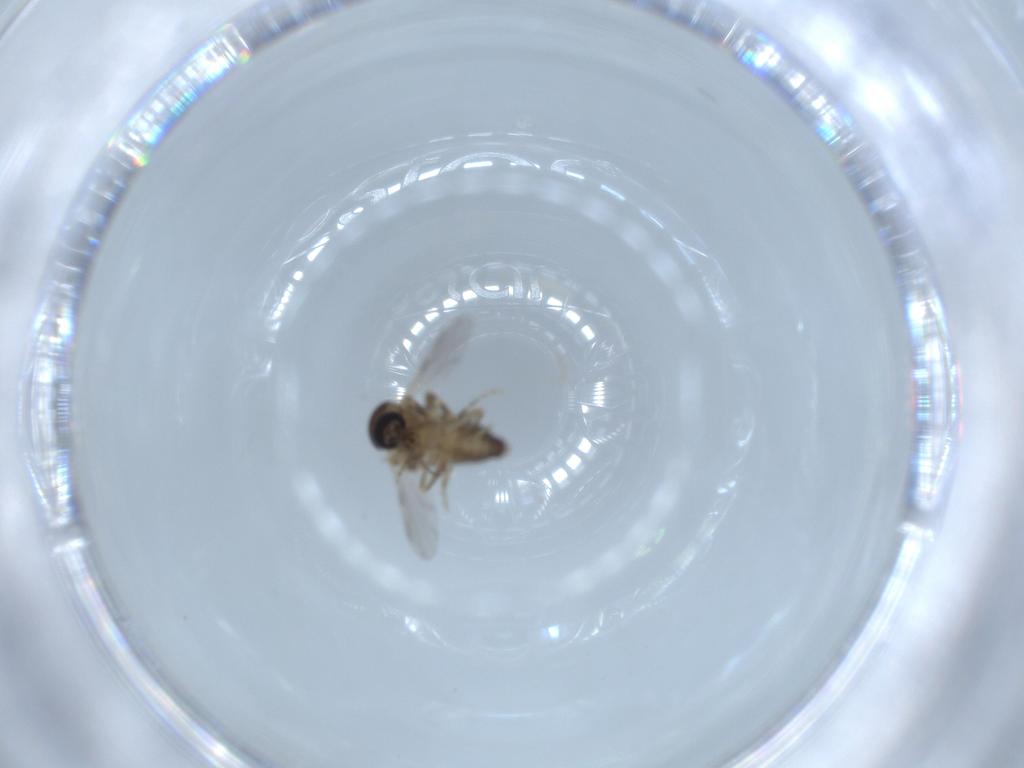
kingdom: Animalia
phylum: Arthropoda
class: Insecta
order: Diptera
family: Ceratopogonidae
